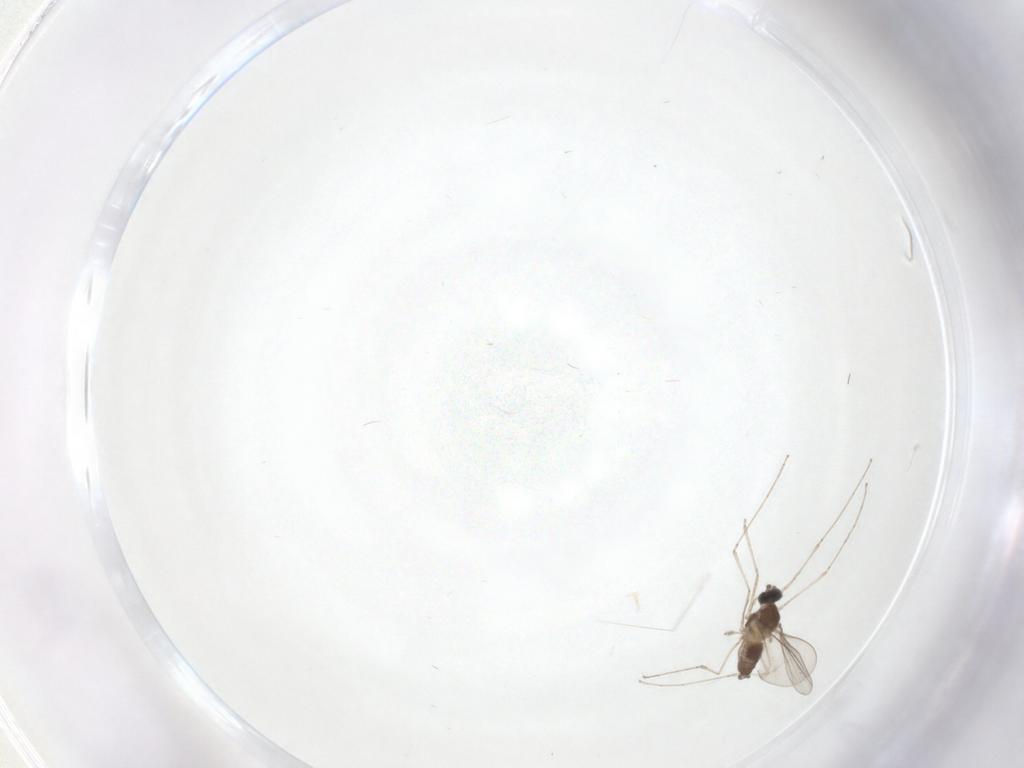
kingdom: Animalia
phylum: Arthropoda
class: Insecta
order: Diptera
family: Cecidomyiidae
